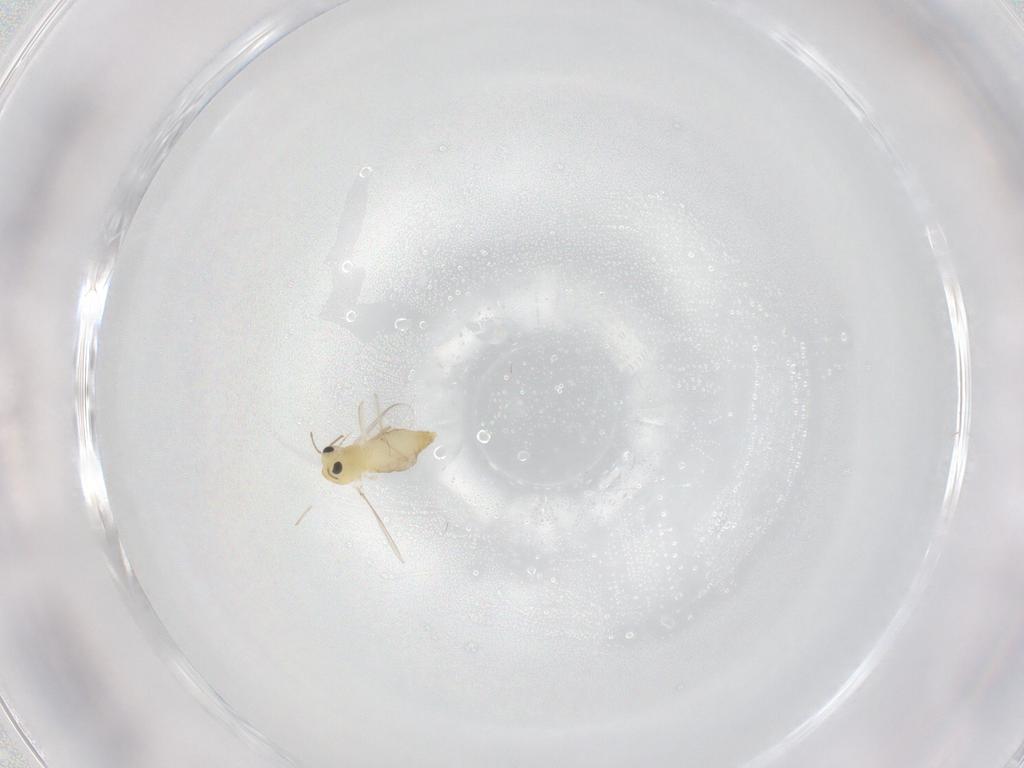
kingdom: Animalia
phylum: Arthropoda
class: Insecta
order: Diptera
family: Chironomidae
